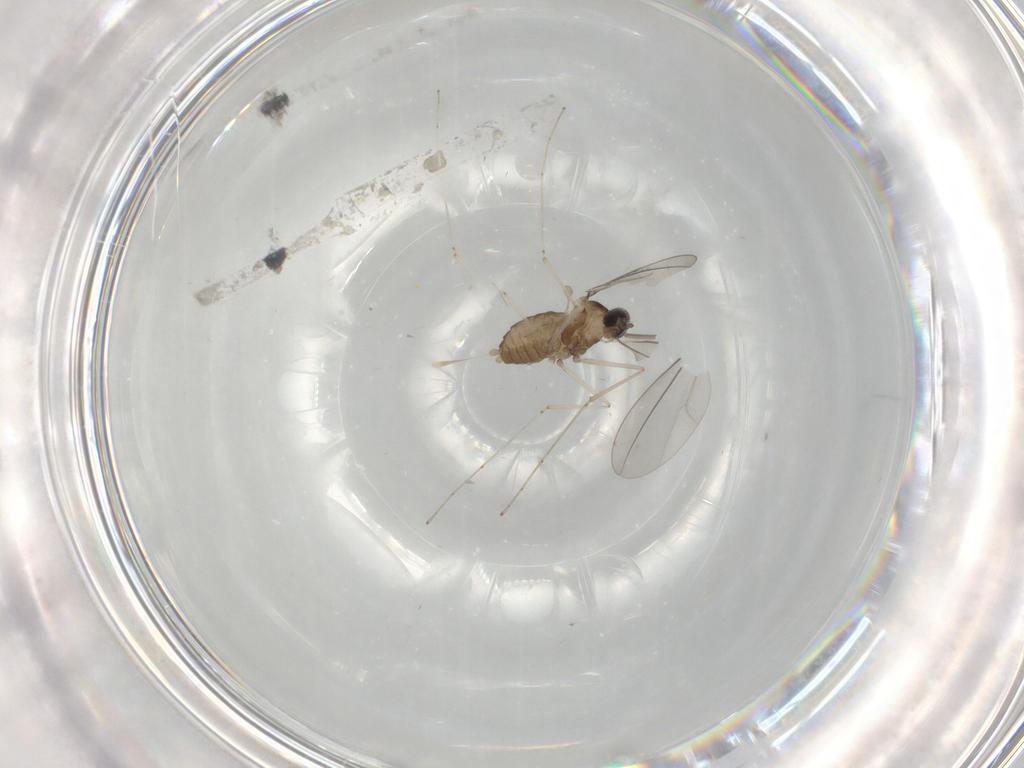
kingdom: Animalia
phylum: Arthropoda
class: Insecta
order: Diptera
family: Cecidomyiidae
